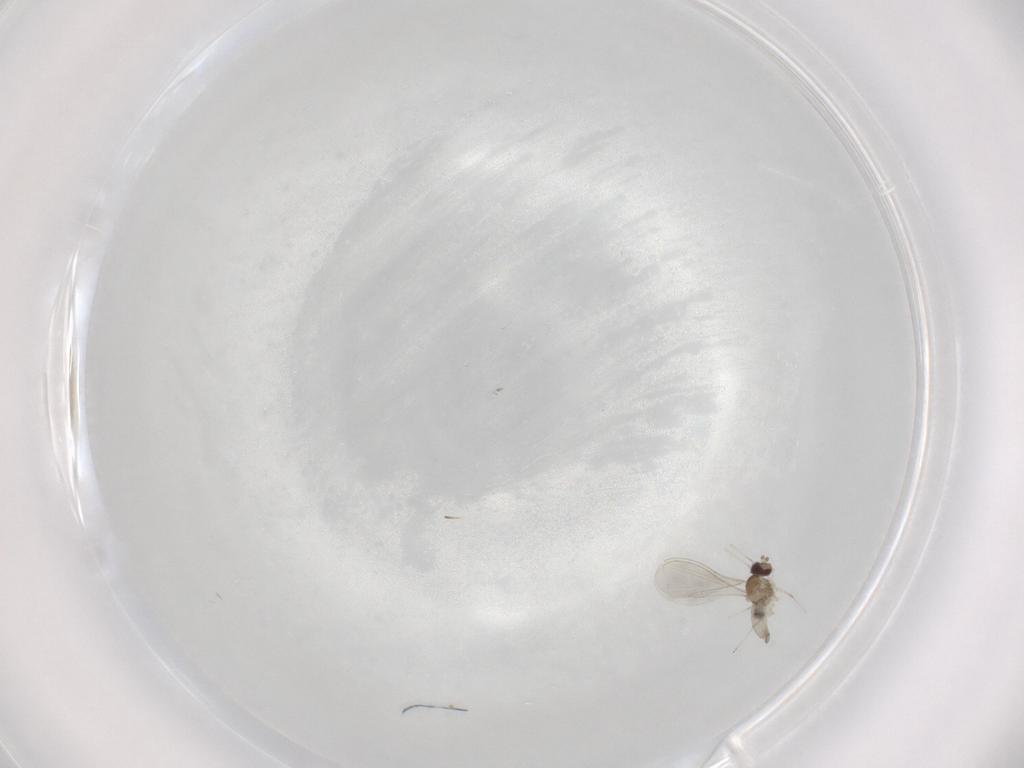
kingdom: Animalia
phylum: Arthropoda
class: Insecta
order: Diptera
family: Cecidomyiidae
